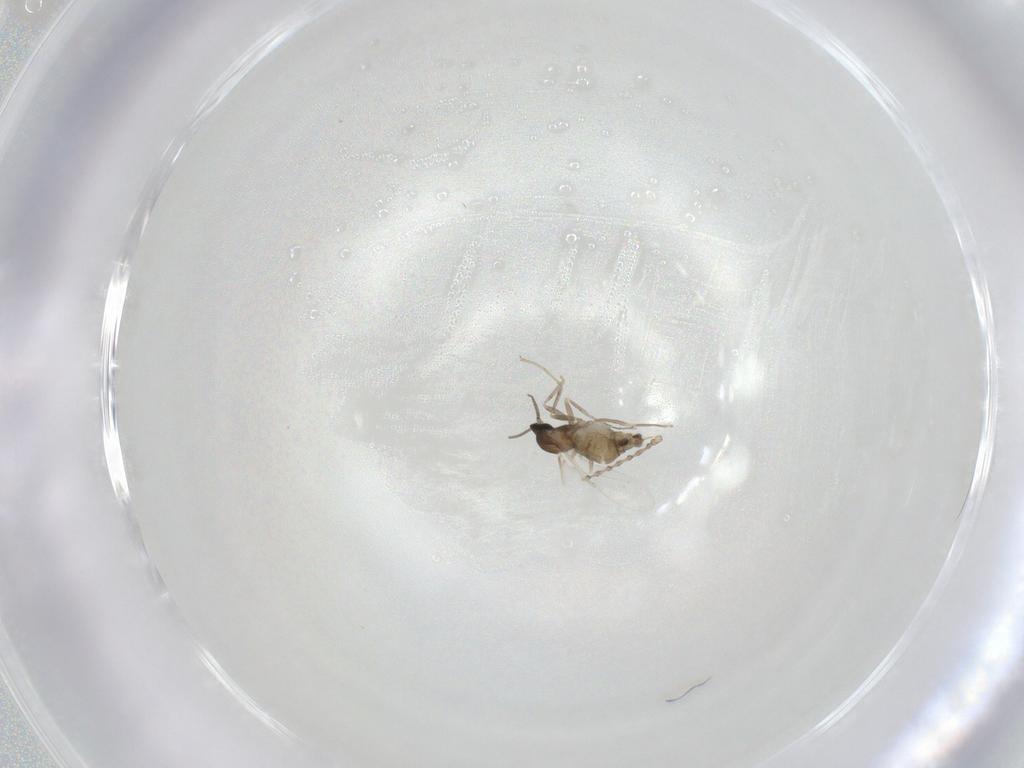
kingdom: Animalia
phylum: Arthropoda
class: Insecta
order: Diptera
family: Cecidomyiidae
